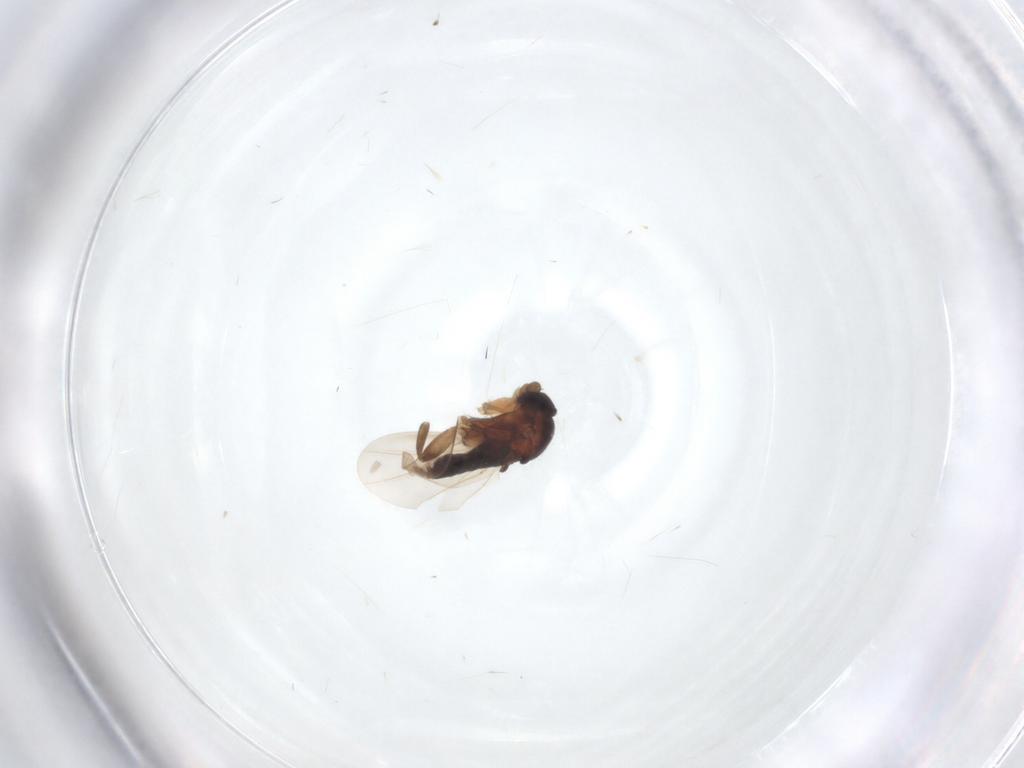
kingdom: Animalia
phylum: Arthropoda
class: Insecta
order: Diptera
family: Phoridae
